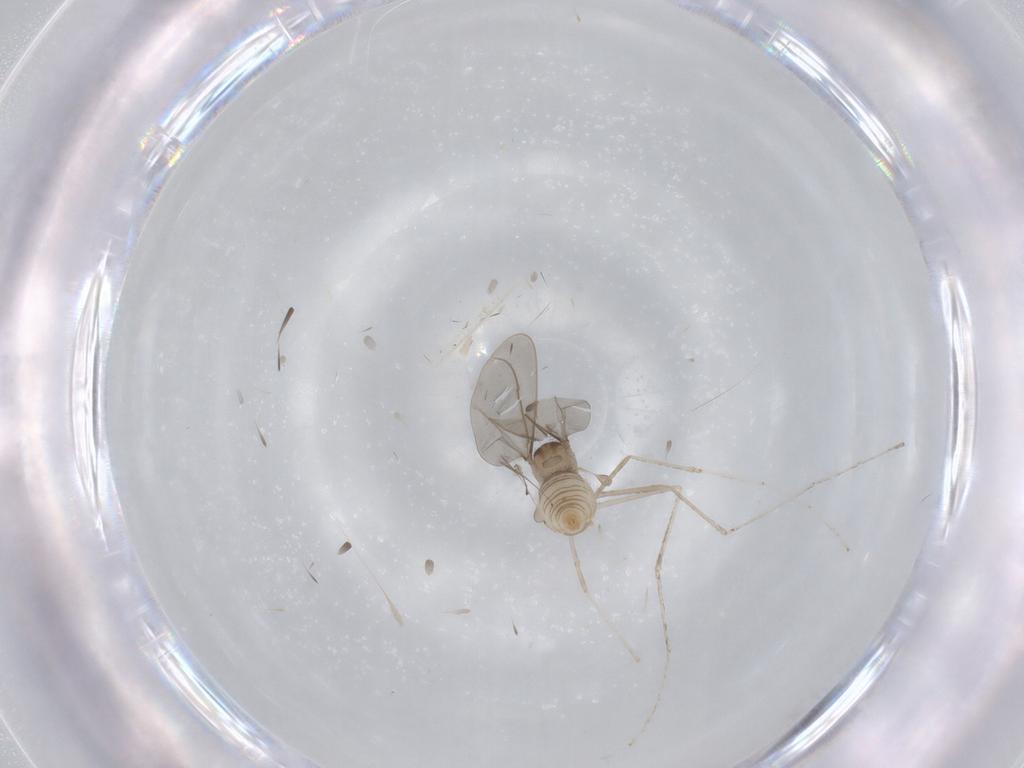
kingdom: Animalia
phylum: Arthropoda
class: Insecta
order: Diptera
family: Cecidomyiidae
